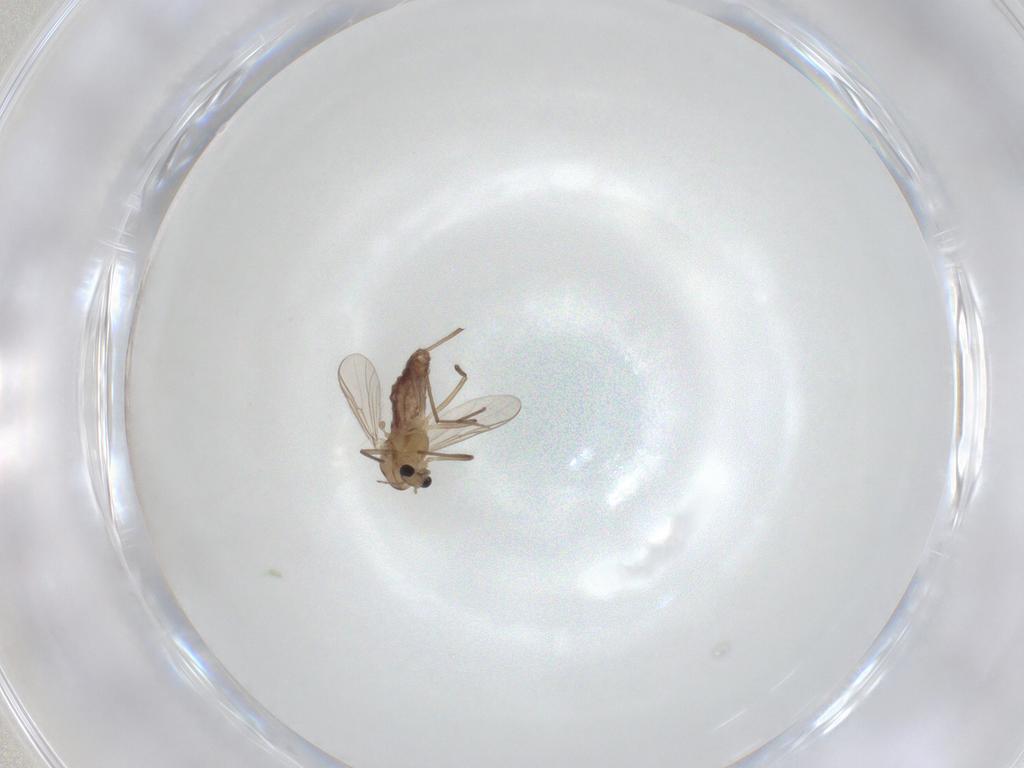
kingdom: Animalia
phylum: Arthropoda
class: Insecta
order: Diptera
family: Chironomidae
